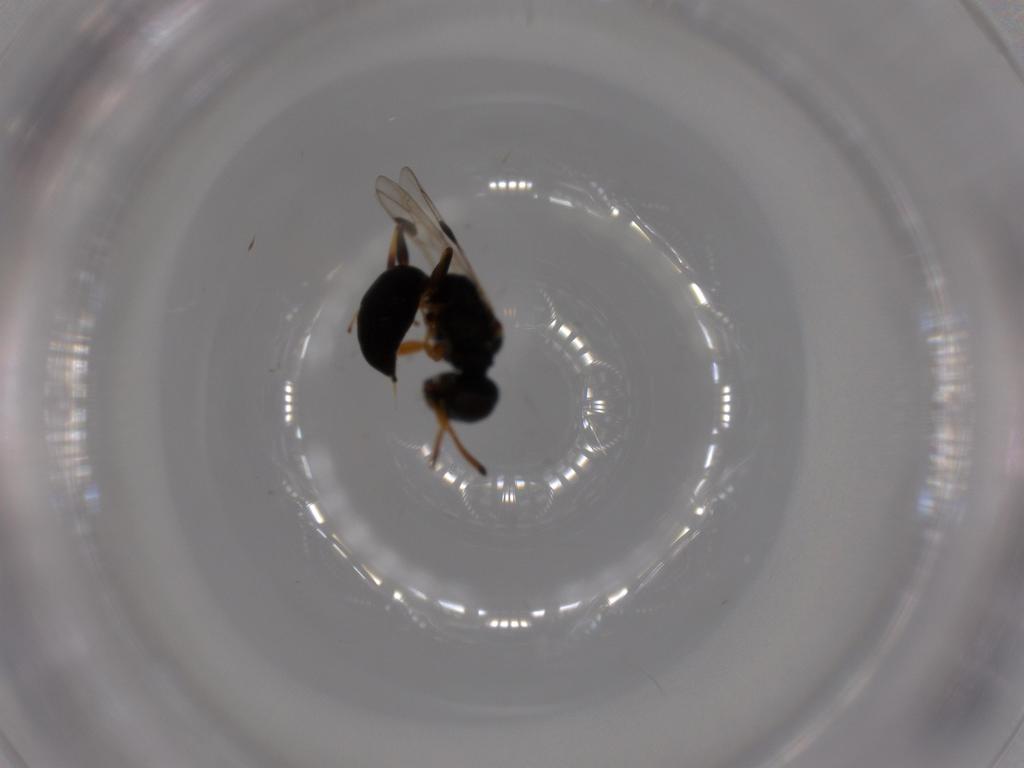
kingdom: Animalia
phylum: Arthropoda
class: Insecta
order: Hymenoptera
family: Pemphredonidae
